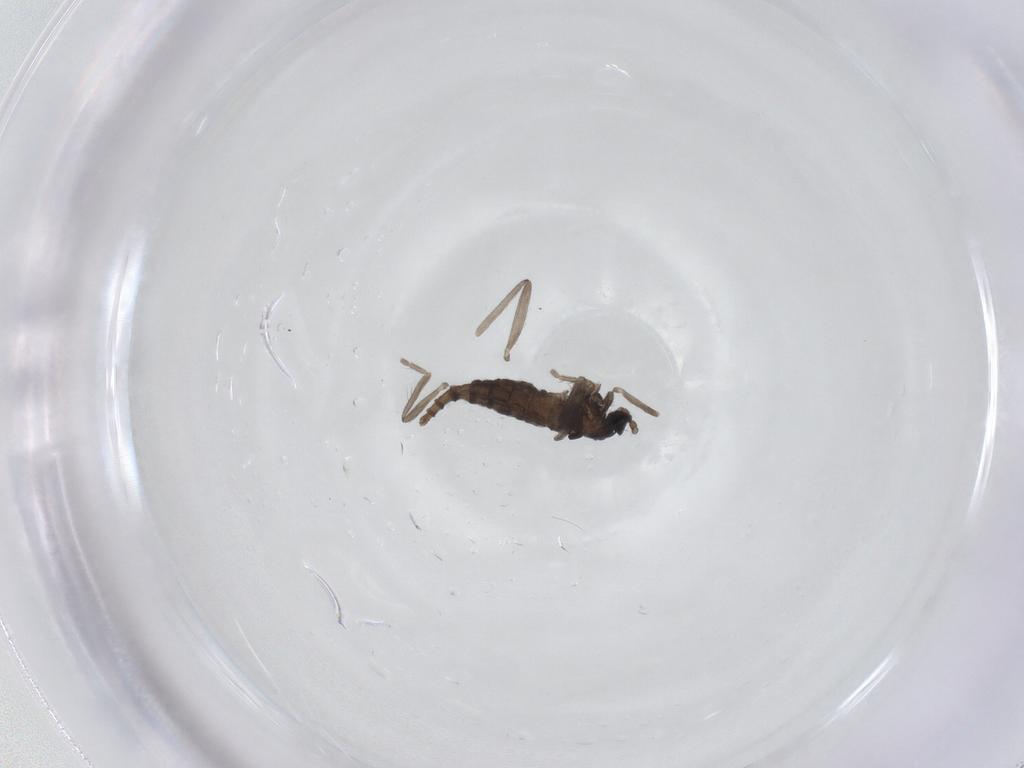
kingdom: Animalia
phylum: Arthropoda
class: Insecta
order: Diptera
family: Cecidomyiidae
